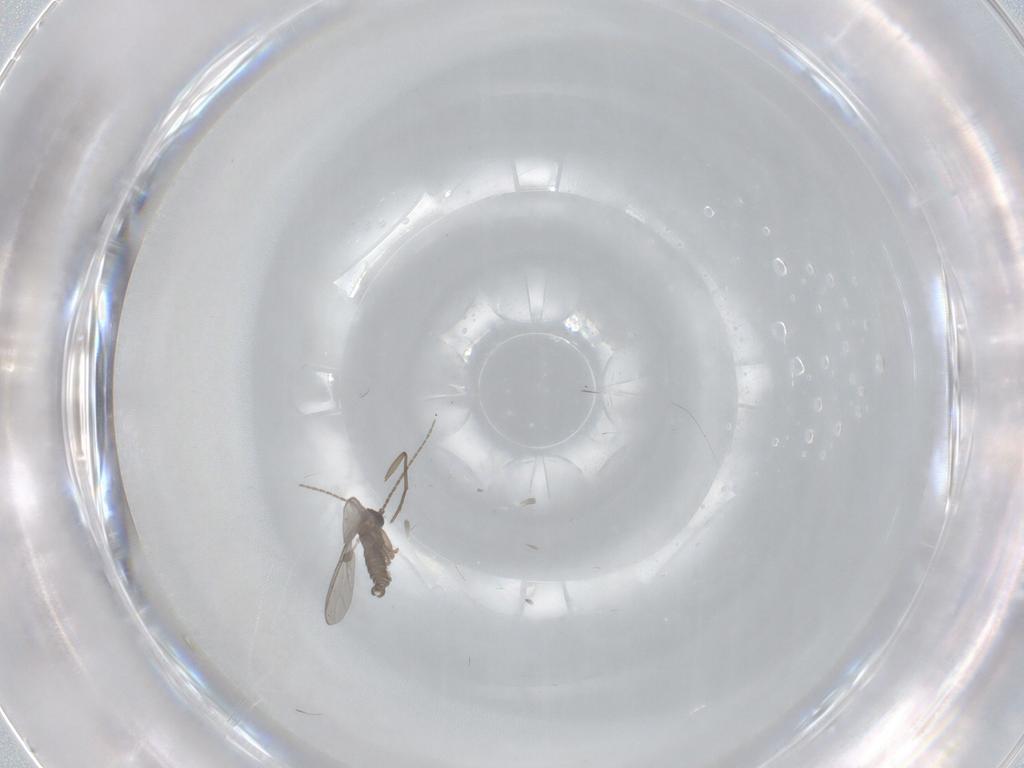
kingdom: Animalia
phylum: Arthropoda
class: Insecta
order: Diptera
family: Sciaridae
